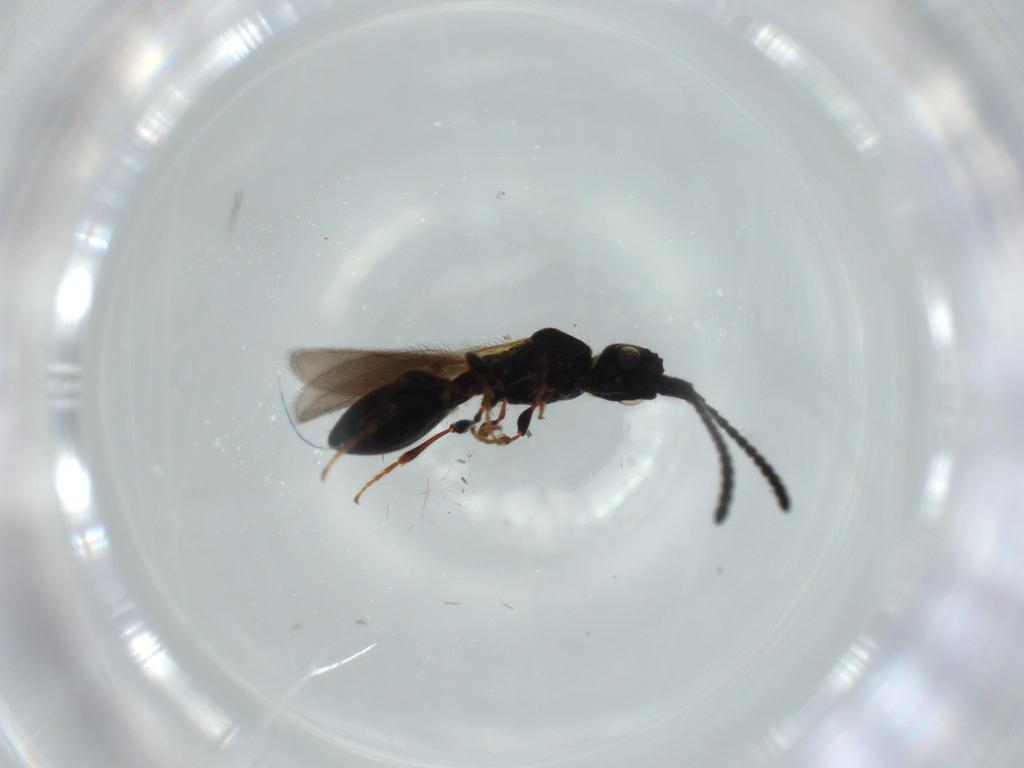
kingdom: Animalia
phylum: Arthropoda
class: Insecta
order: Hymenoptera
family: Diapriidae
